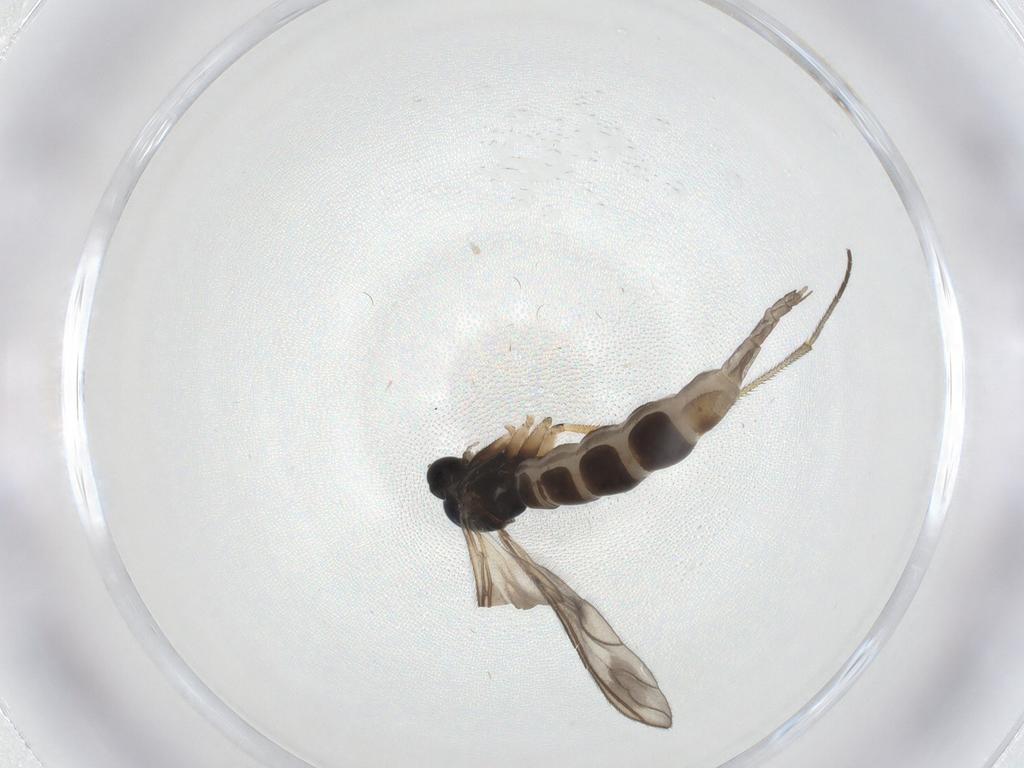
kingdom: Animalia
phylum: Arthropoda
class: Insecta
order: Diptera
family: Sciaridae
